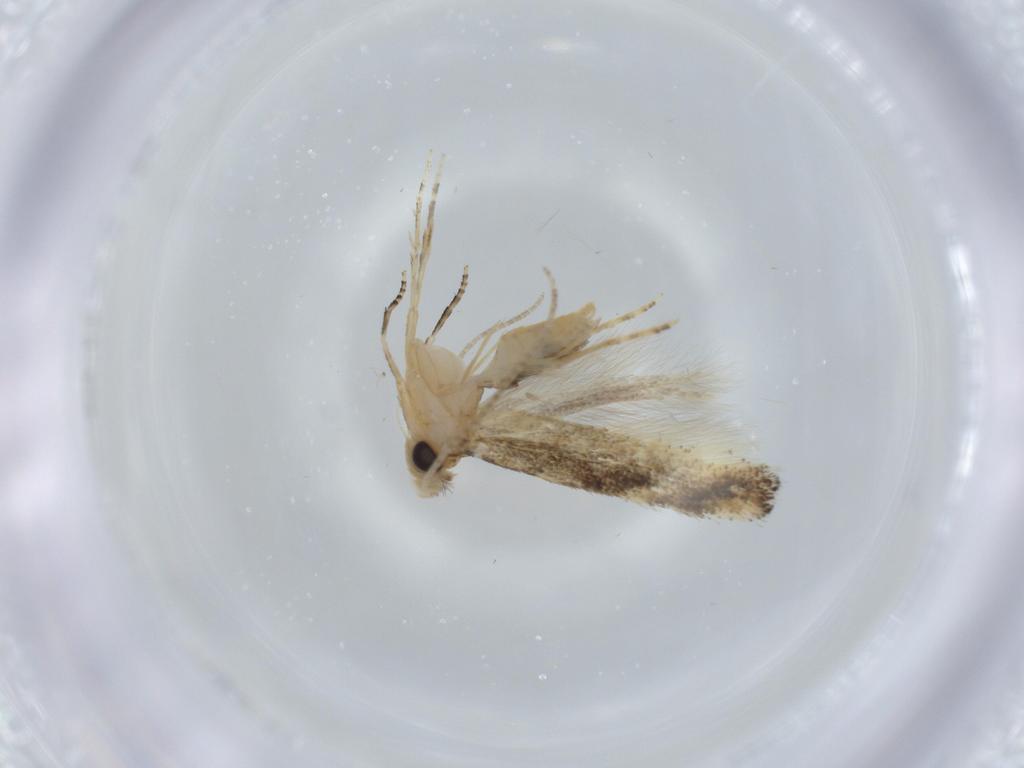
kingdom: Animalia
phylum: Arthropoda
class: Insecta
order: Lepidoptera
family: Bucculatricidae
